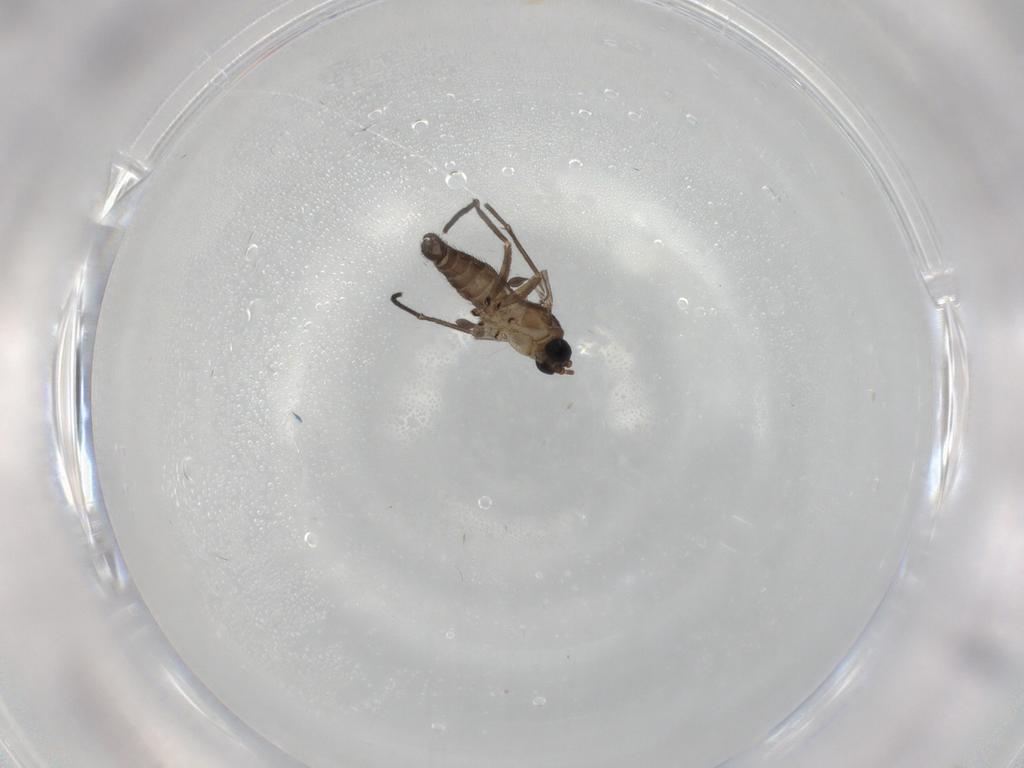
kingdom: Animalia
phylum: Arthropoda
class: Insecta
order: Diptera
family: Sciaridae
